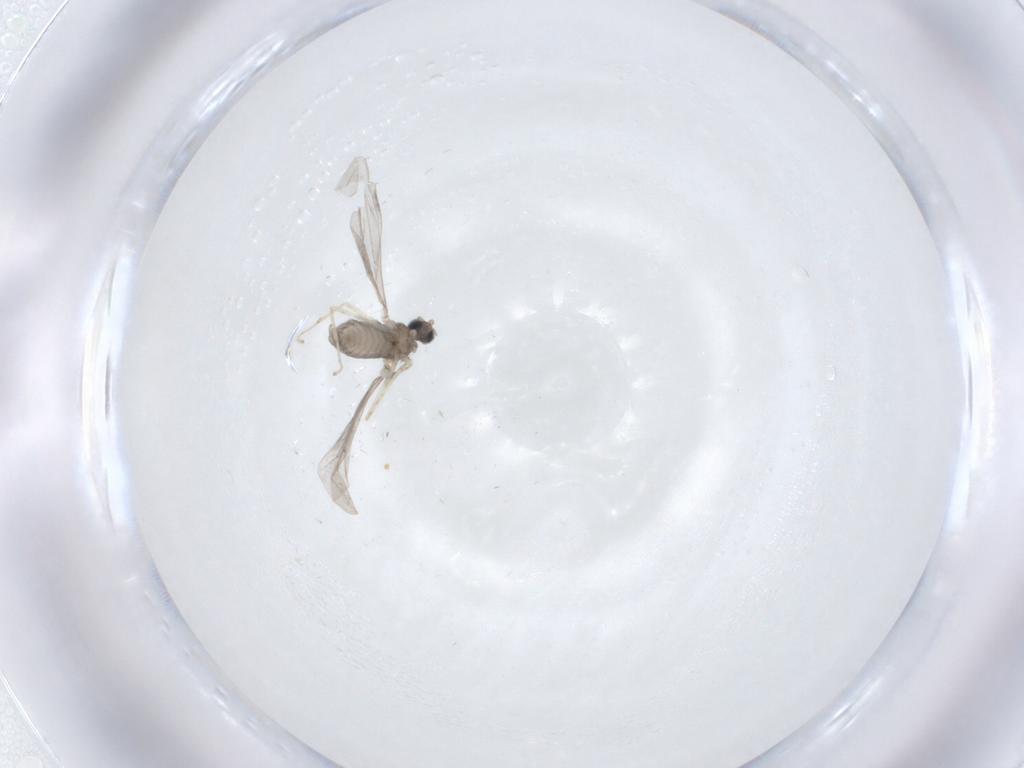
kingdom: Animalia
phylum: Arthropoda
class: Insecta
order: Diptera
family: Cecidomyiidae
